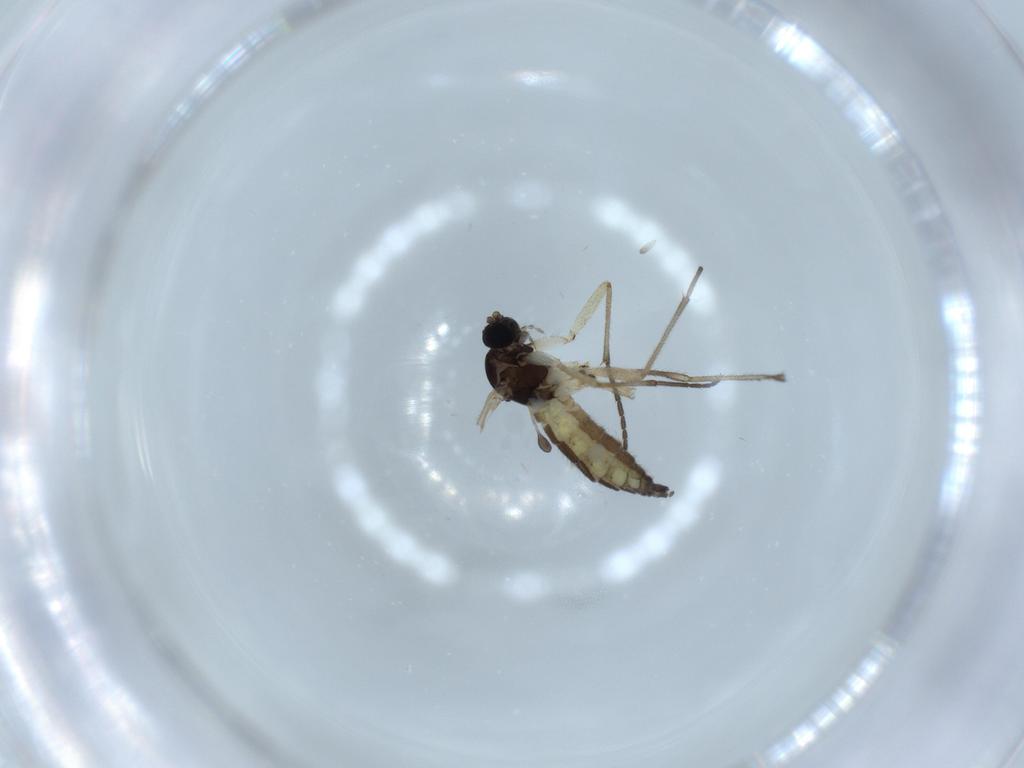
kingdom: Animalia
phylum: Arthropoda
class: Insecta
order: Diptera
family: Sciaridae
